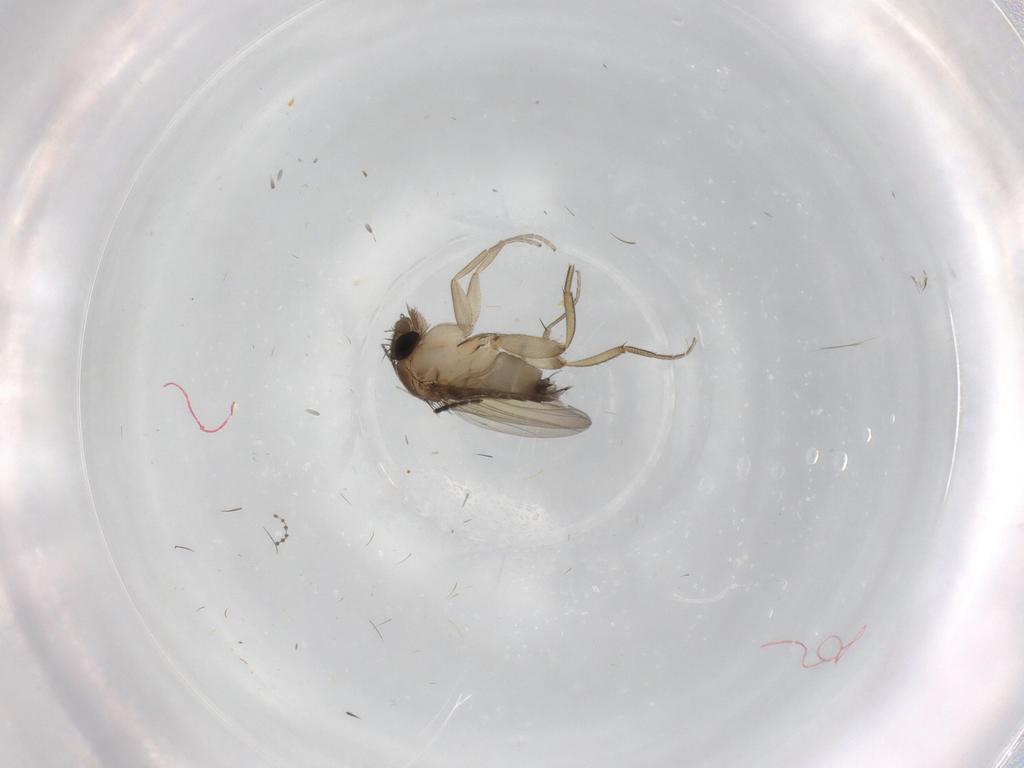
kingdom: Animalia
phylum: Arthropoda
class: Insecta
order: Diptera
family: Phoridae
